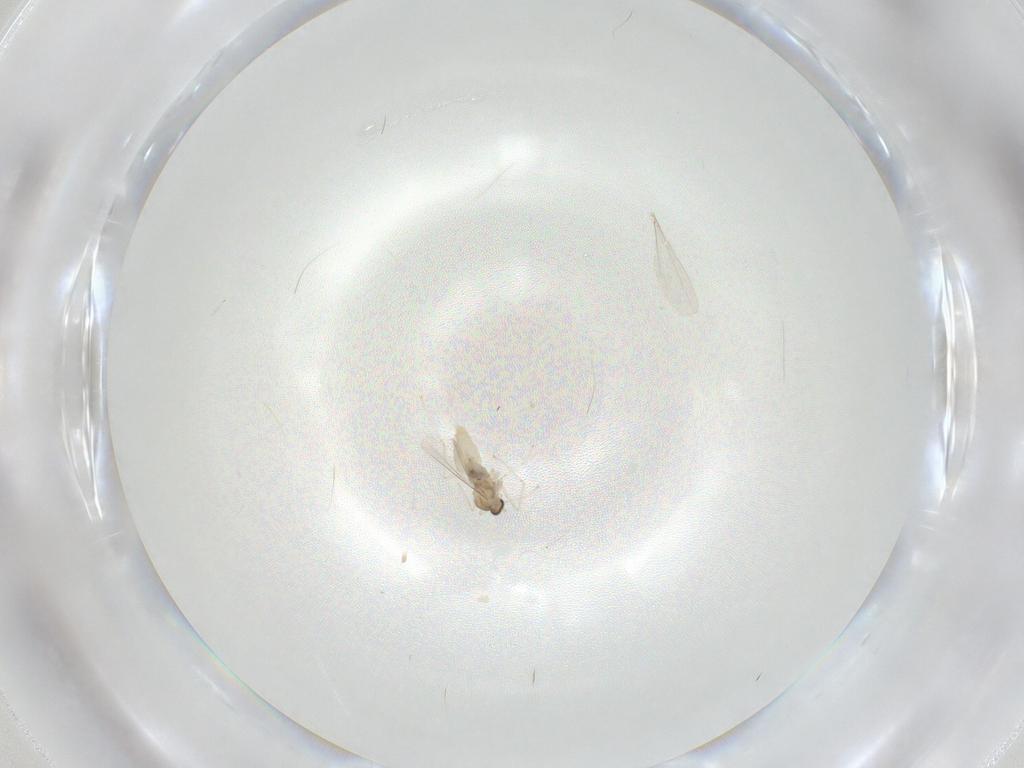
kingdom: Animalia
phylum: Arthropoda
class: Insecta
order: Diptera
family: Cecidomyiidae
